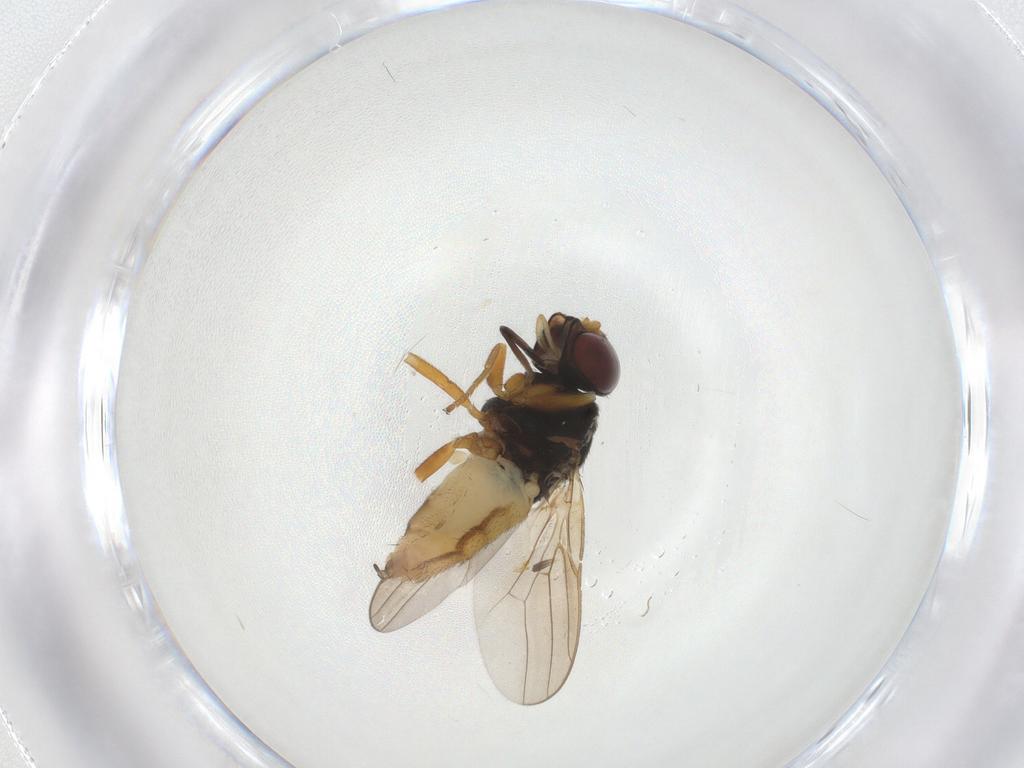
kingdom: Animalia
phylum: Arthropoda
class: Insecta
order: Diptera
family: Chloropidae
